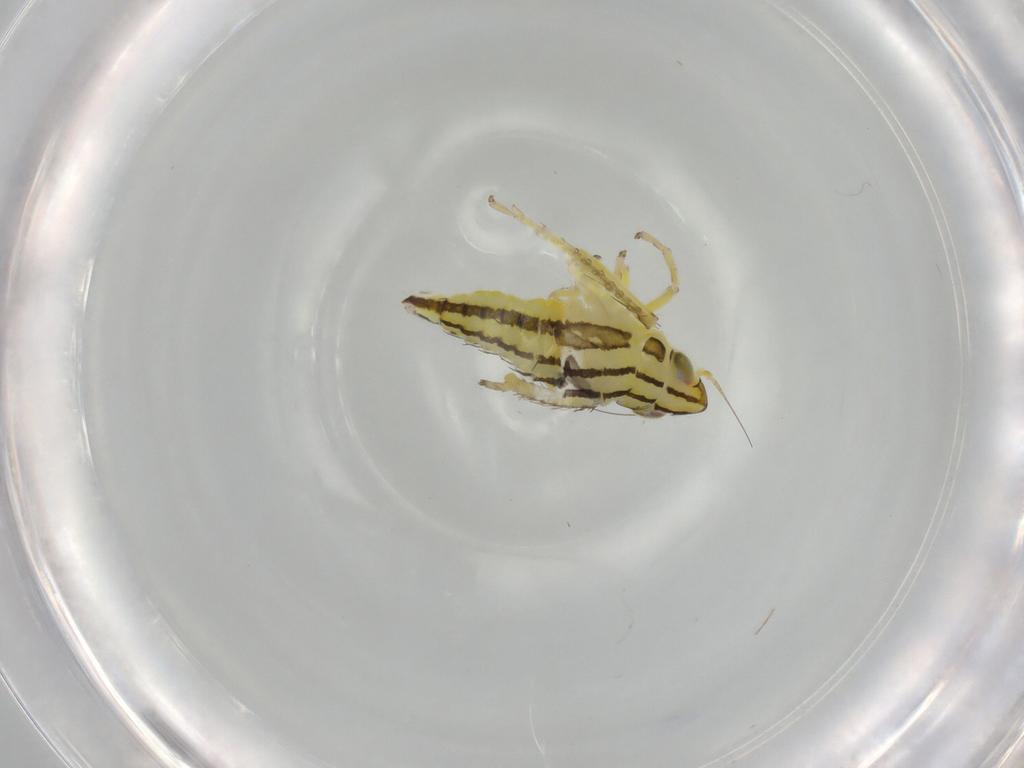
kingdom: Animalia
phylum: Arthropoda
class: Insecta
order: Hemiptera
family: Cicadellidae
